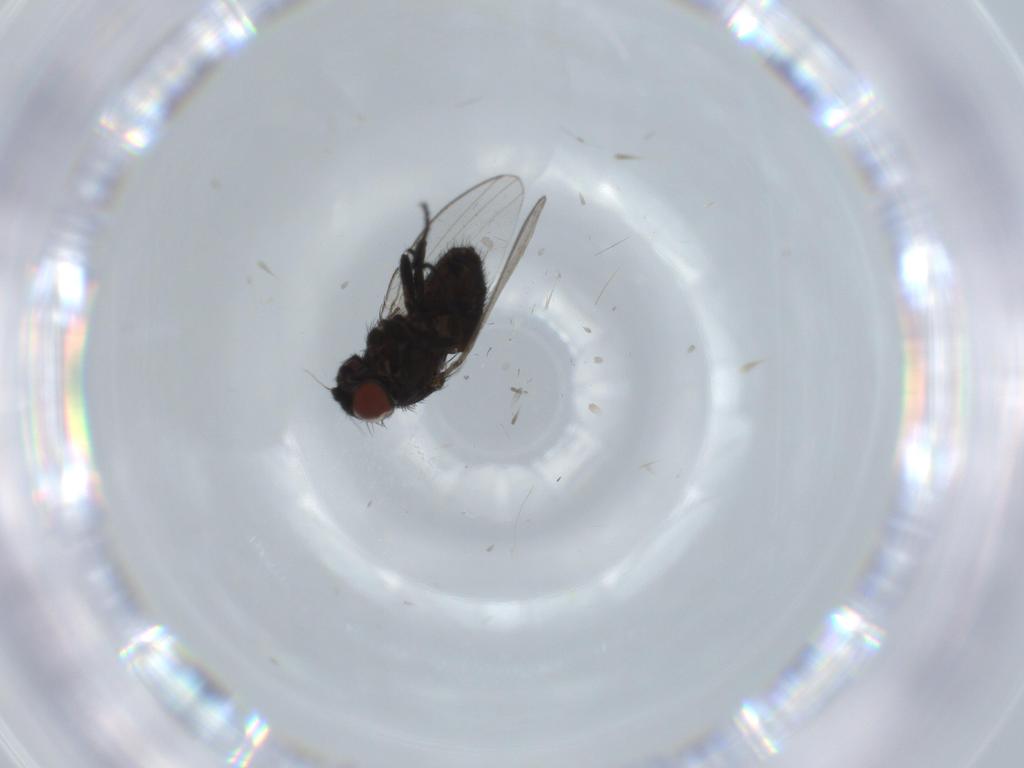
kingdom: Animalia
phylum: Arthropoda
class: Insecta
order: Diptera
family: Milichiidae
